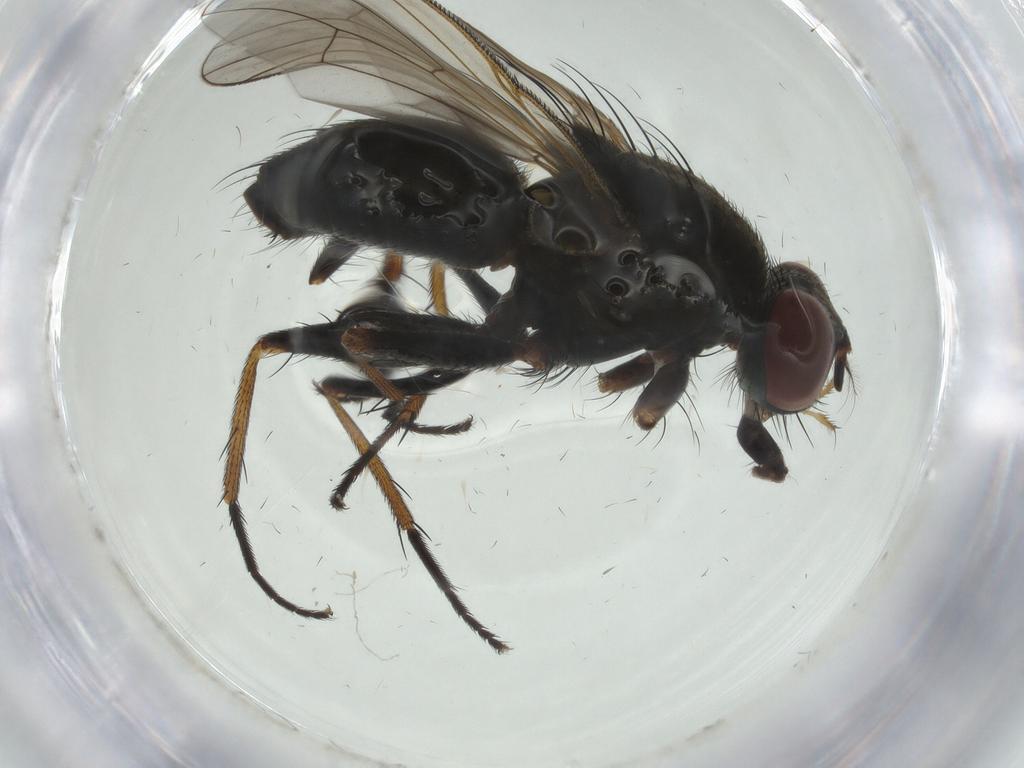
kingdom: Animalia
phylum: Arthropoda
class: Insecta
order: Diptera
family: Muscidae
